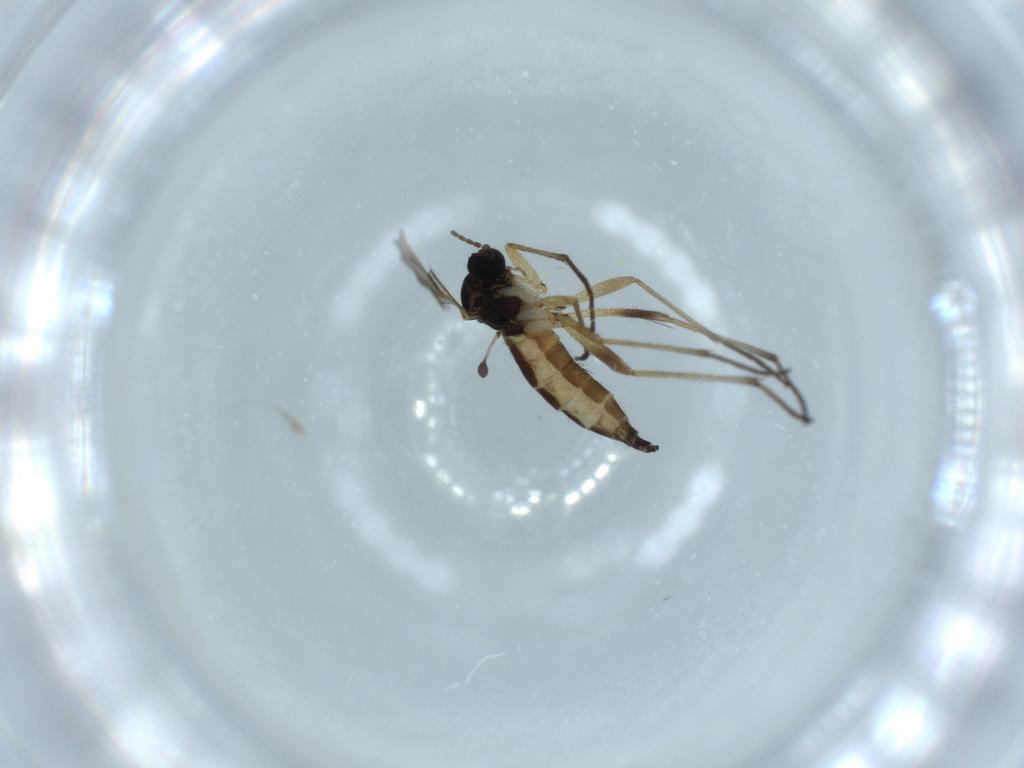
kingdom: Animalia
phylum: Arthropoda
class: Insecta
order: Diptera
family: Sciaridae
